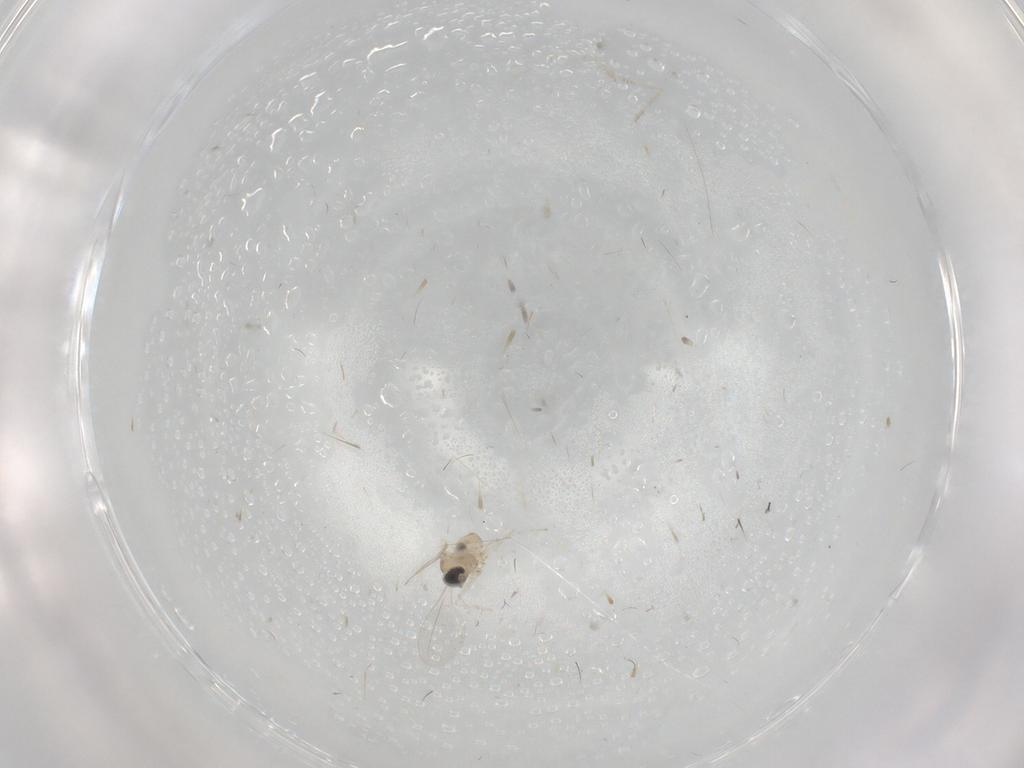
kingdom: Animalia
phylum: Arthropoda
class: Insecta
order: Diptera
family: Cecidomyiidae
